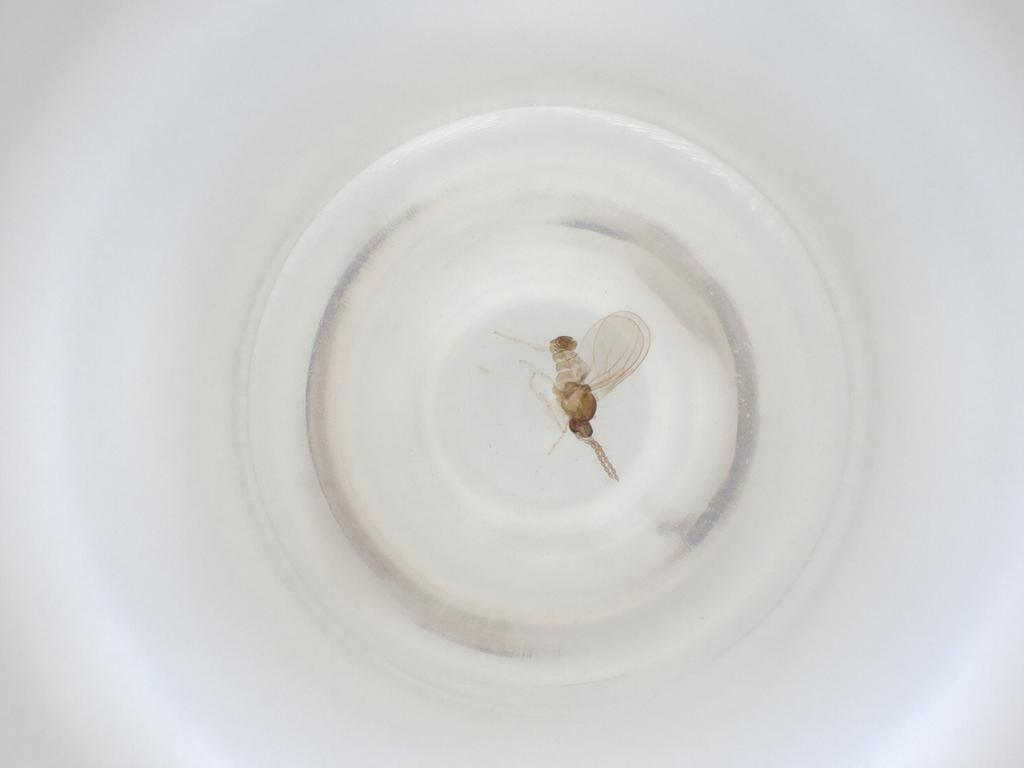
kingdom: Animalia
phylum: Arthropoda
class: Insecta
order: Diptera
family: Cecidomyiidae
